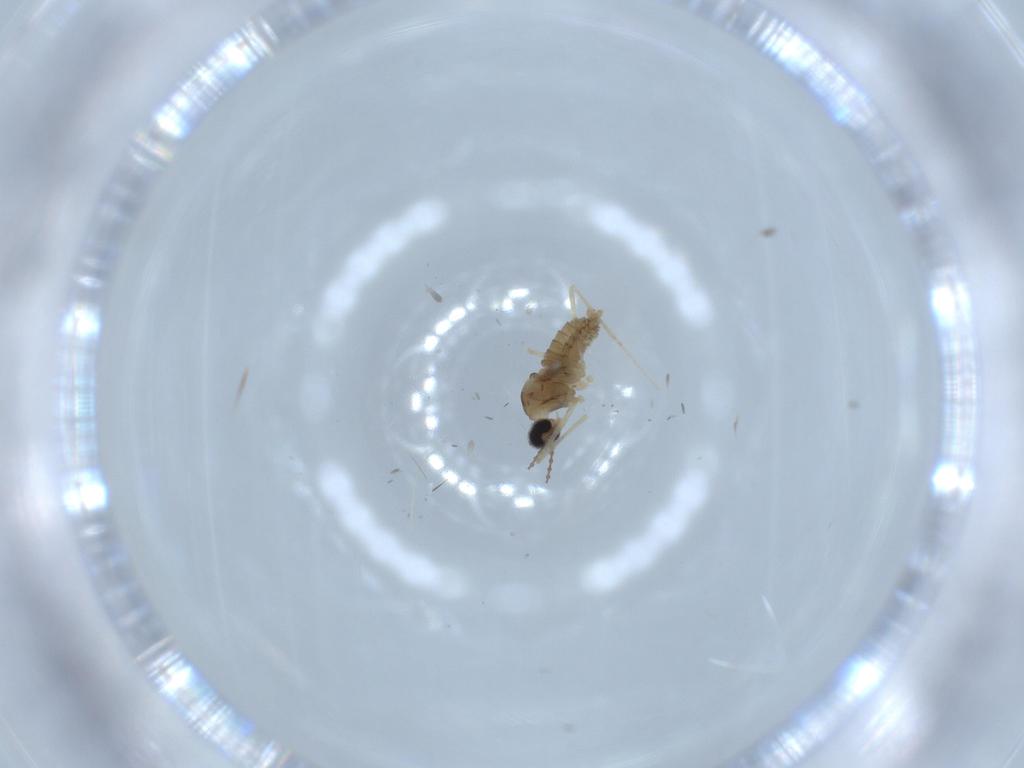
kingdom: Animalia
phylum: Arthropoda
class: Insecta
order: Diptera
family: Cecidomyiidae
